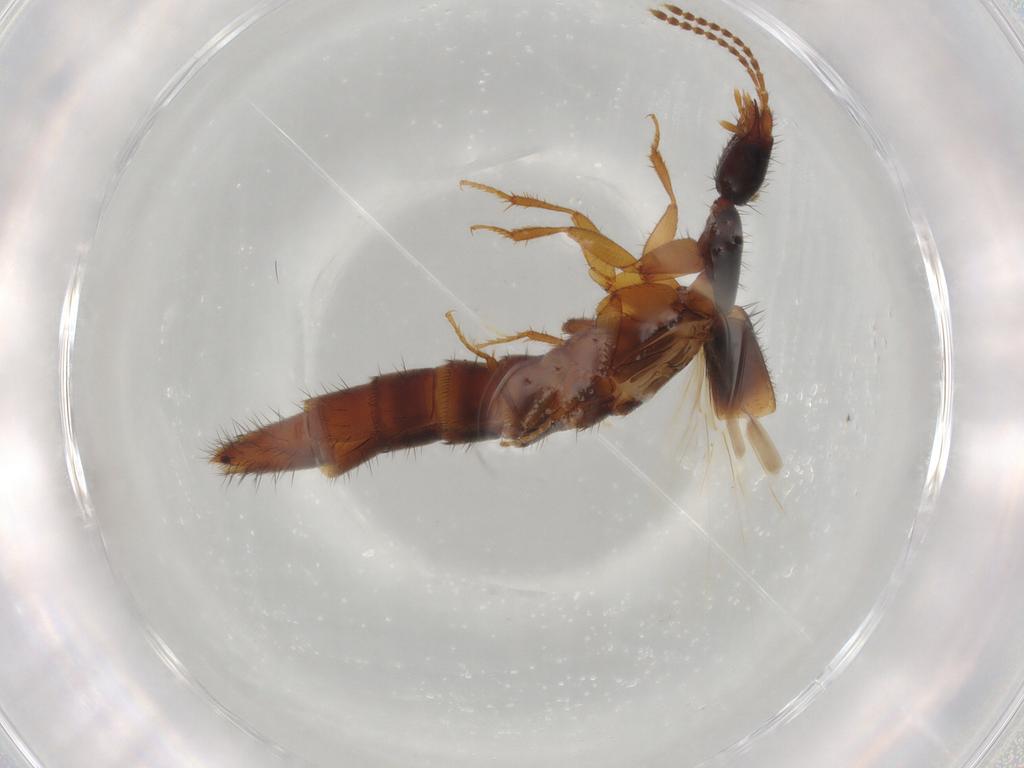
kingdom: Animalia
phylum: Arthropoda
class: Insecta
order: Coleoptera
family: Staphylinidae
